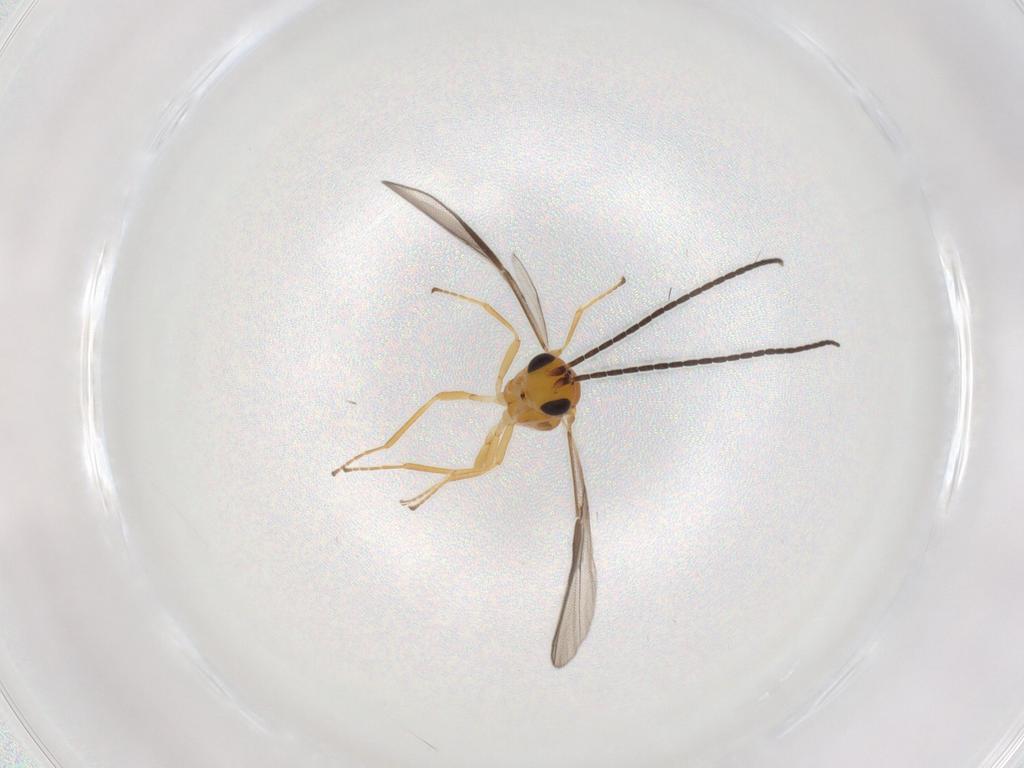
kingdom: Animalia
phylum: Arthropoda
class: Insecta
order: Hymenoptera
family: Braconidae
